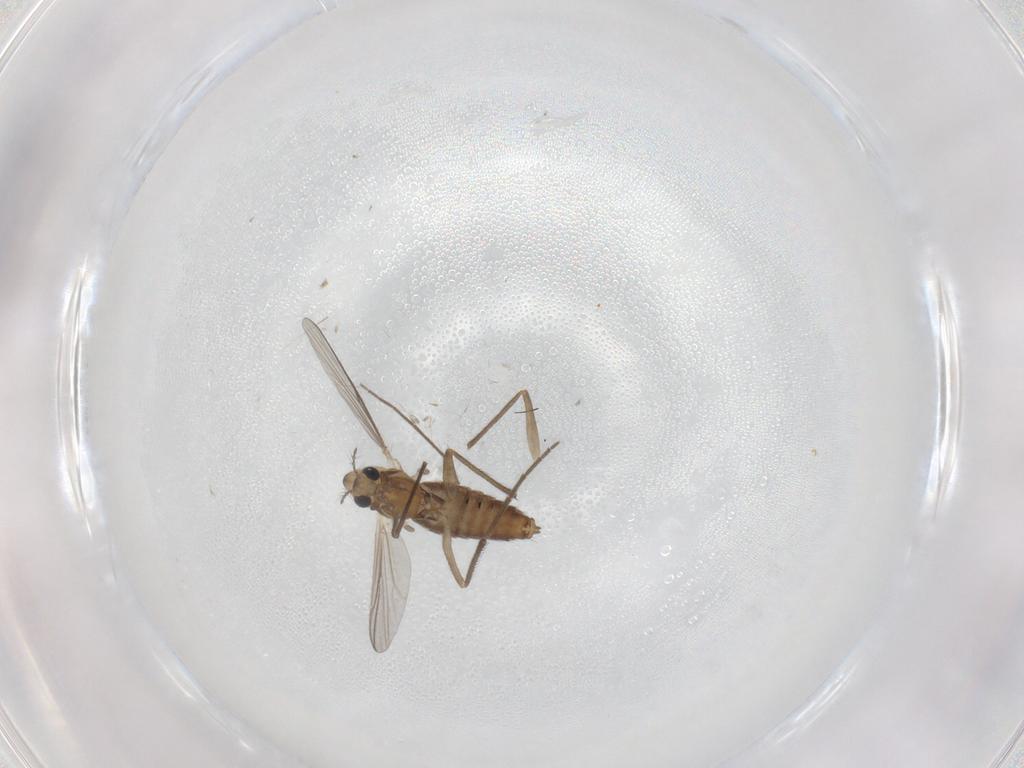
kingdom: Animalia
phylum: Arthropoda
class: Insecta
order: Diptera
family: Chironomidae
